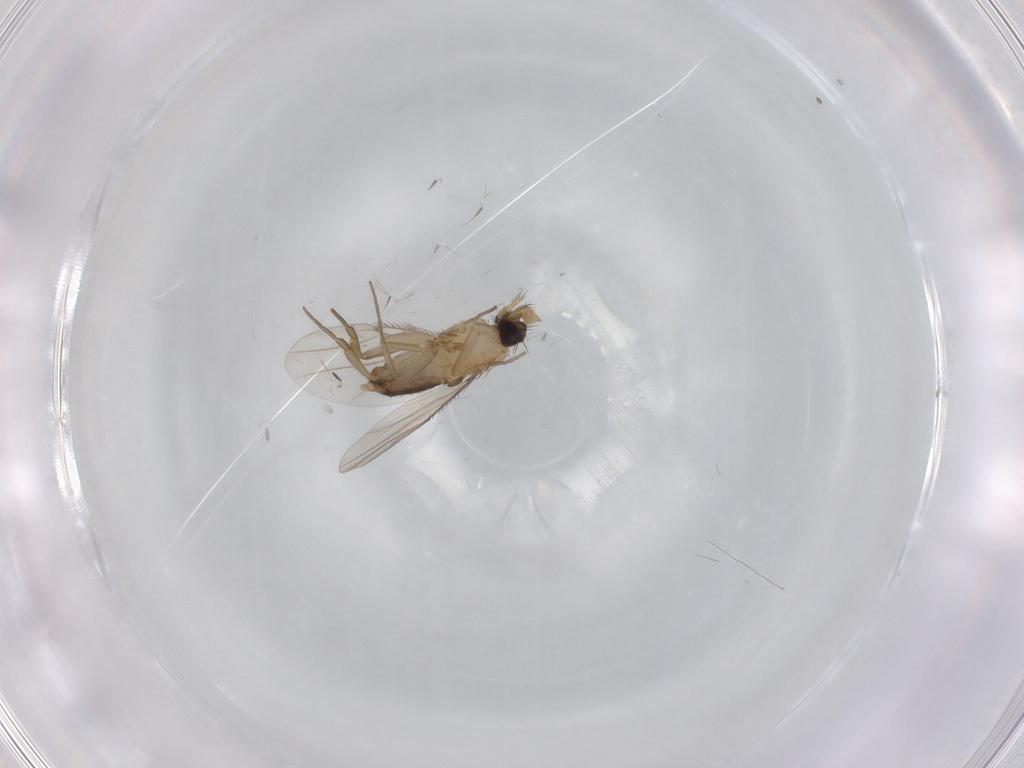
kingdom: Animalia
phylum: Arthropoda
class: Insecta
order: Diptera
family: Phoridae
